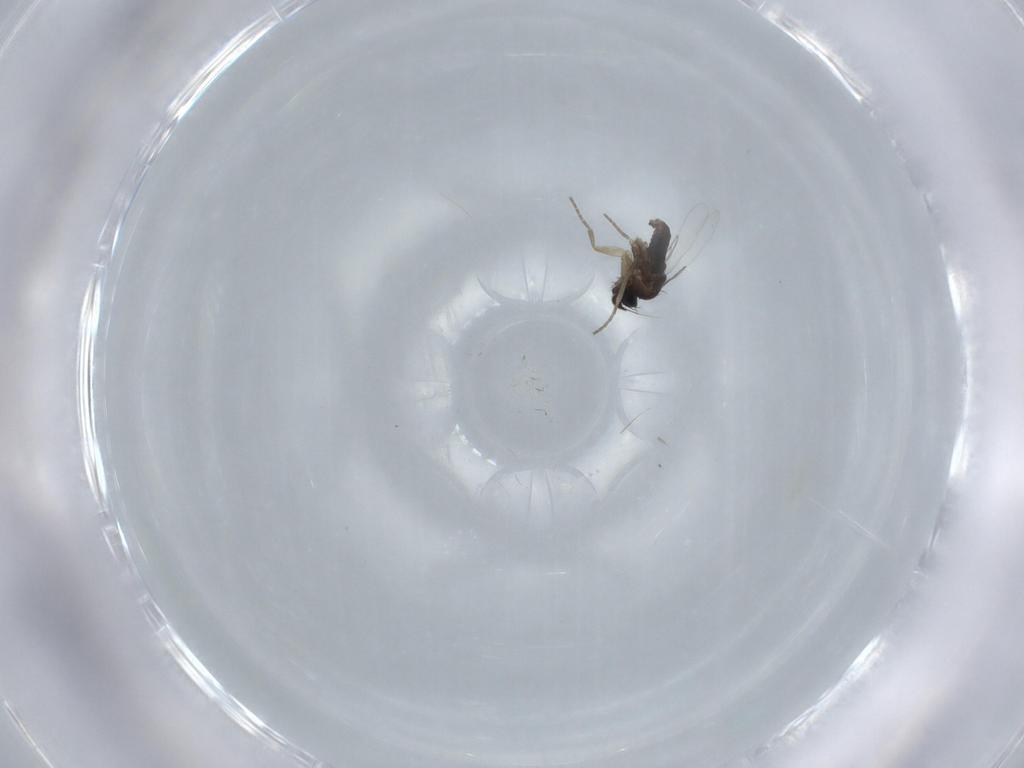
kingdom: Animalia
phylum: Arthropoda
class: Insecta
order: Diptera
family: Phoridae
